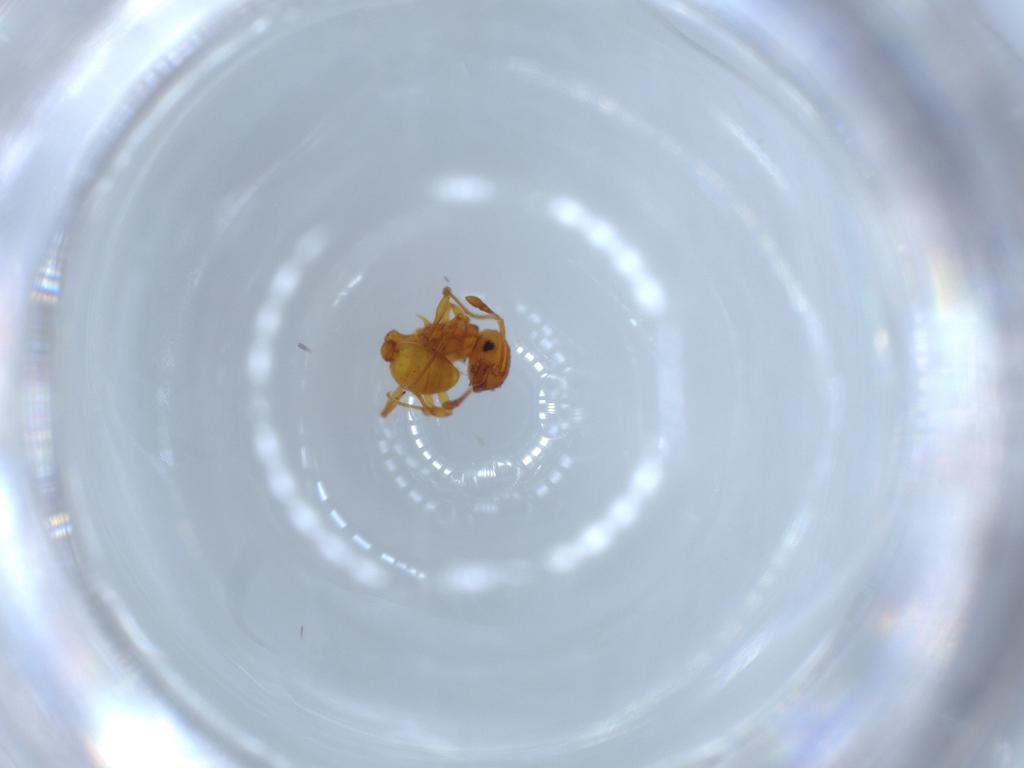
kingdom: Animalia
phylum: Arthropoda
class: Insecta
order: Hymenoptera
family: Formicidae
